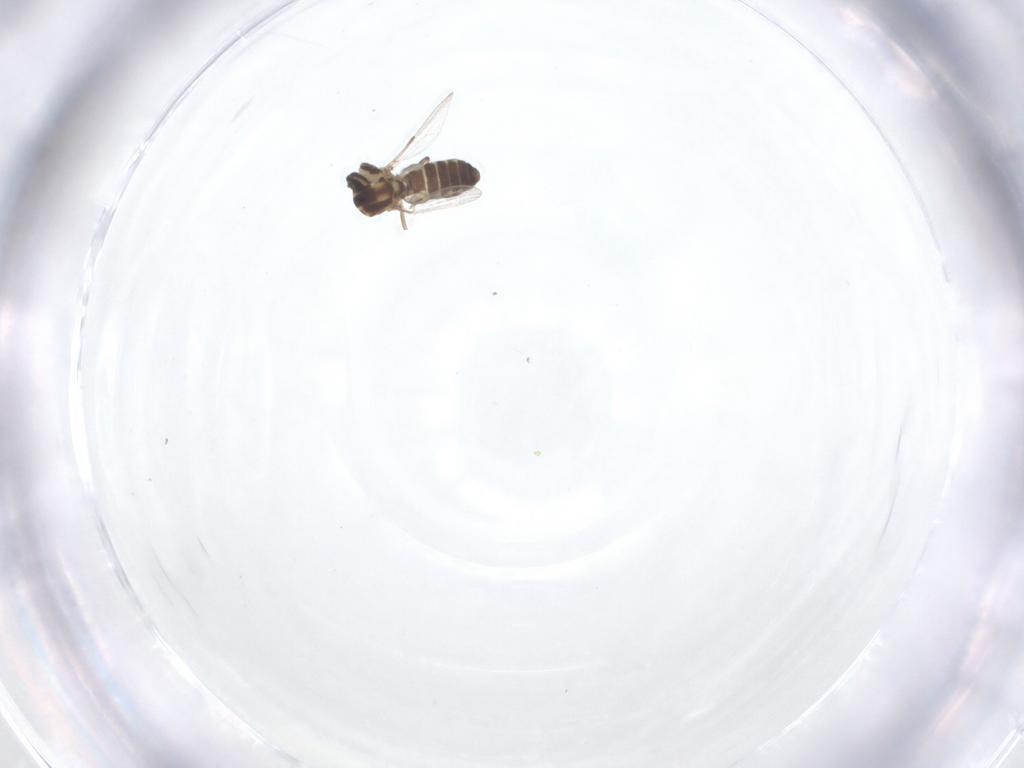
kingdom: Animalia
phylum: Arthropoda
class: Insecta
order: Diptera
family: Ceratopogonidae
